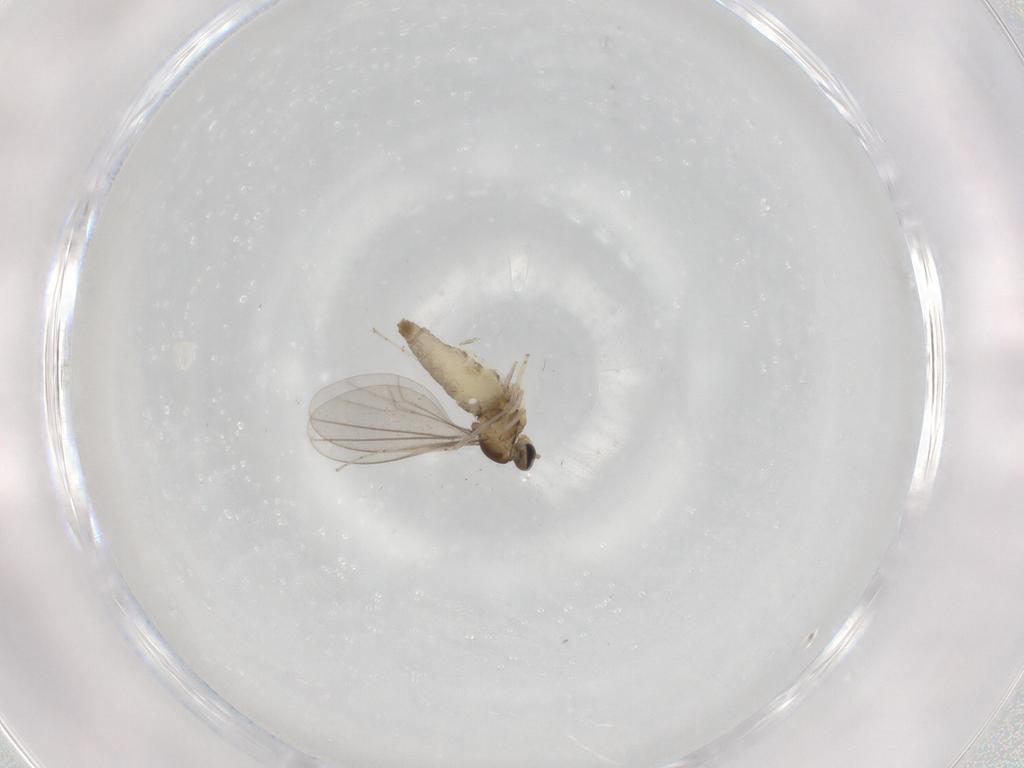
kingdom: Animalia
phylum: Arthropoda
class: Insecta
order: Diptera
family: Cecidomyiidae
